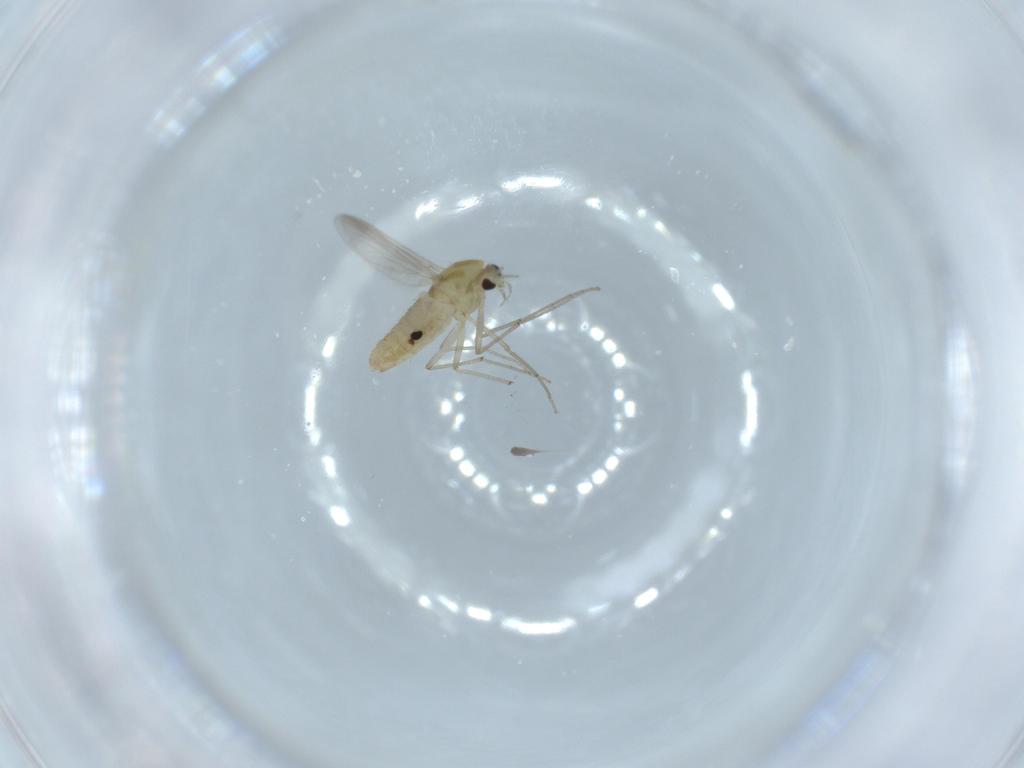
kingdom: Animalia
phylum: Arthropoda
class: Insecta
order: Diptera
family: Chironomidae
